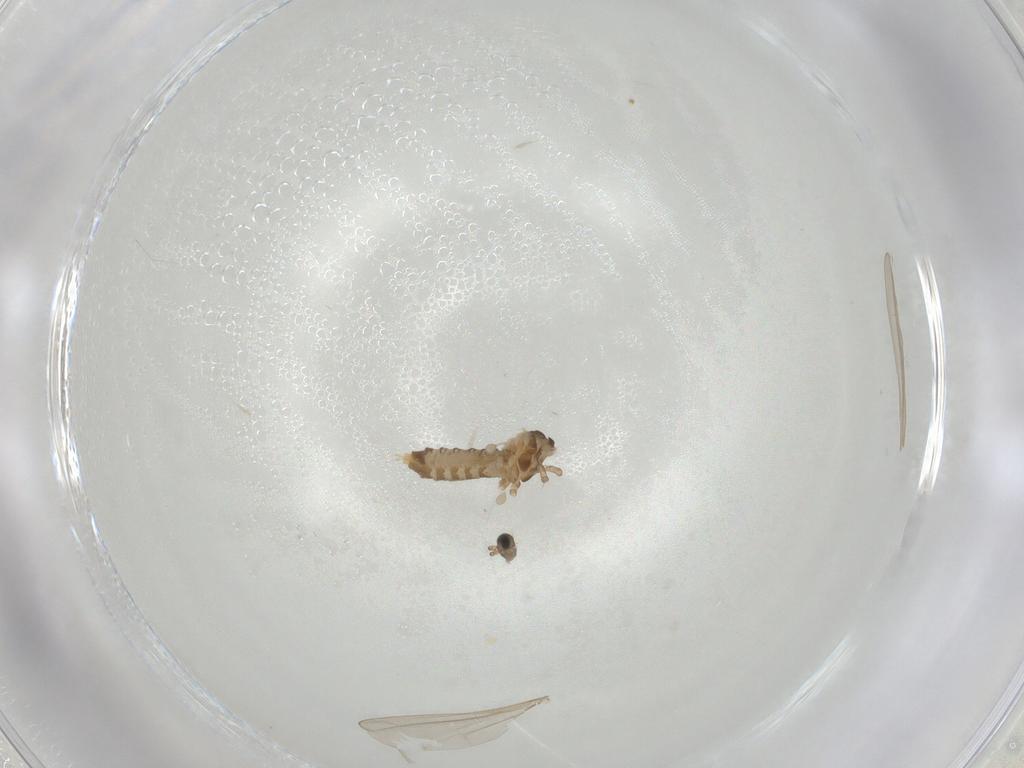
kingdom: Animalia
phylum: Arthropoda
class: Insecta
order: Diptera
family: Cecidomyiidae
